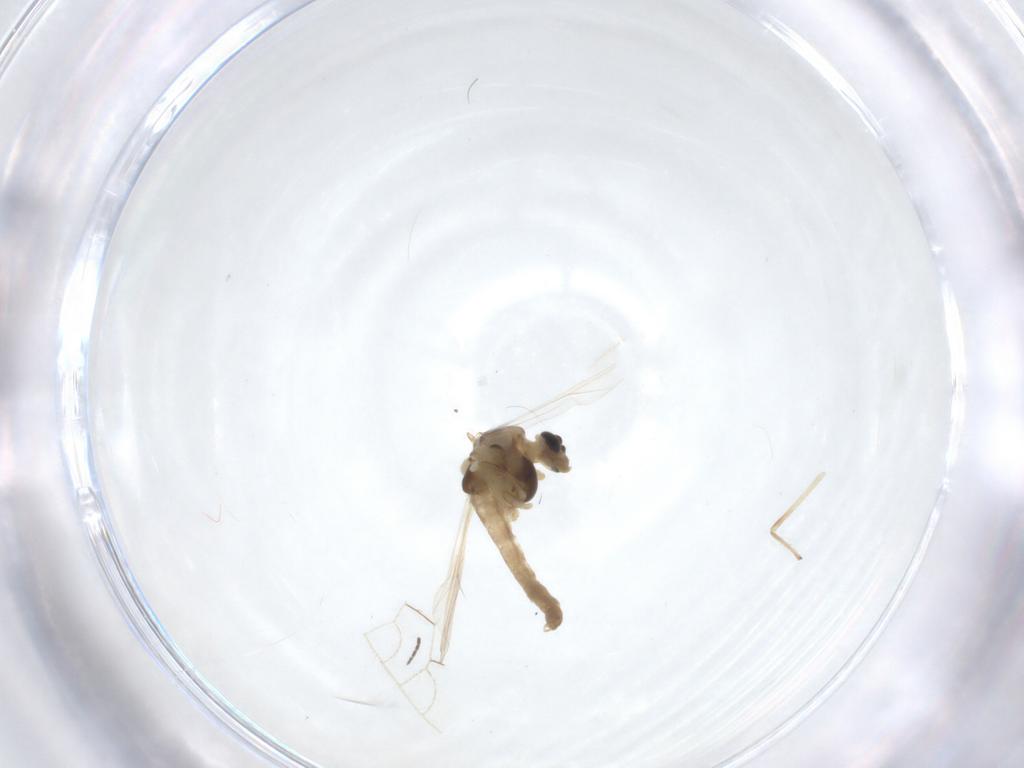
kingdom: Animalia
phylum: Arthropoda
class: Insecta
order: Diptera
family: Chironomidae
